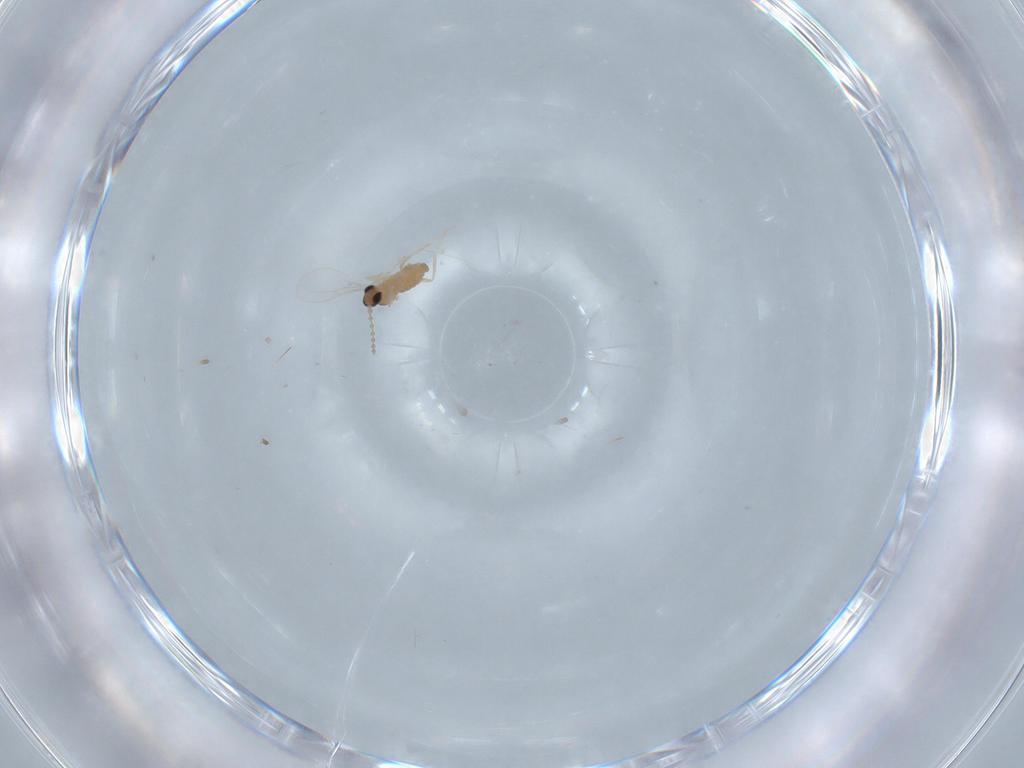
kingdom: Animalia
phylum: Arthropoda
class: Insecta
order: Diptera
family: Cecidomyiidae
